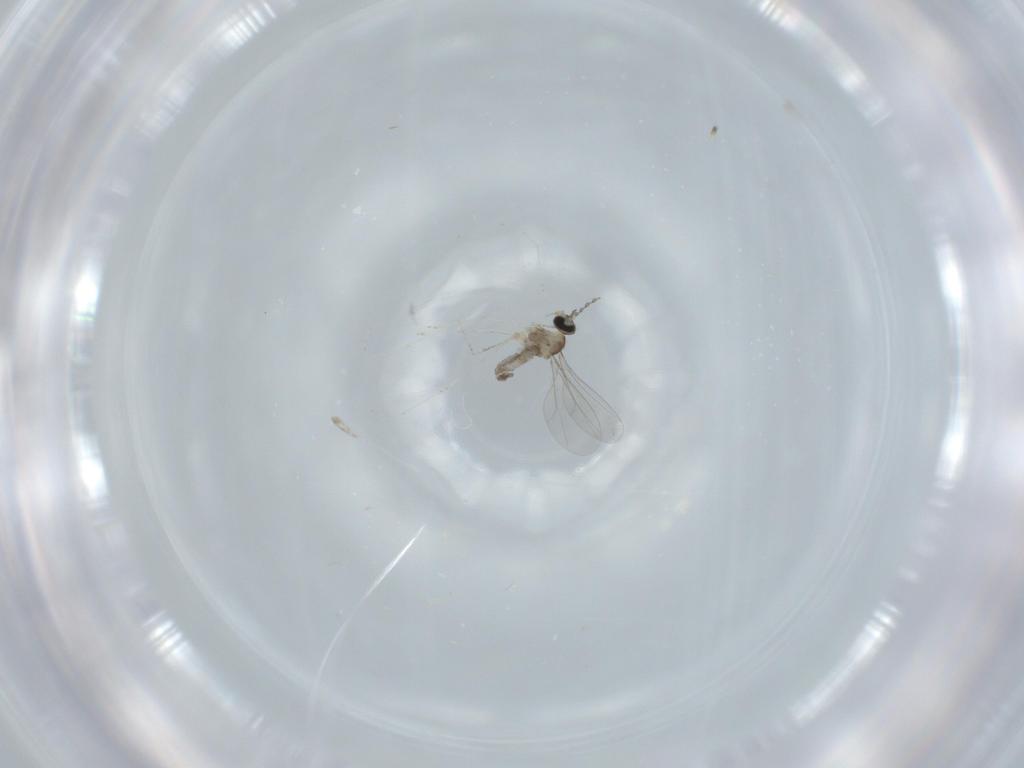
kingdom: Animalia
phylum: Arthropoda
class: Insecta
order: Diptera
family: Cecidomyiidae
